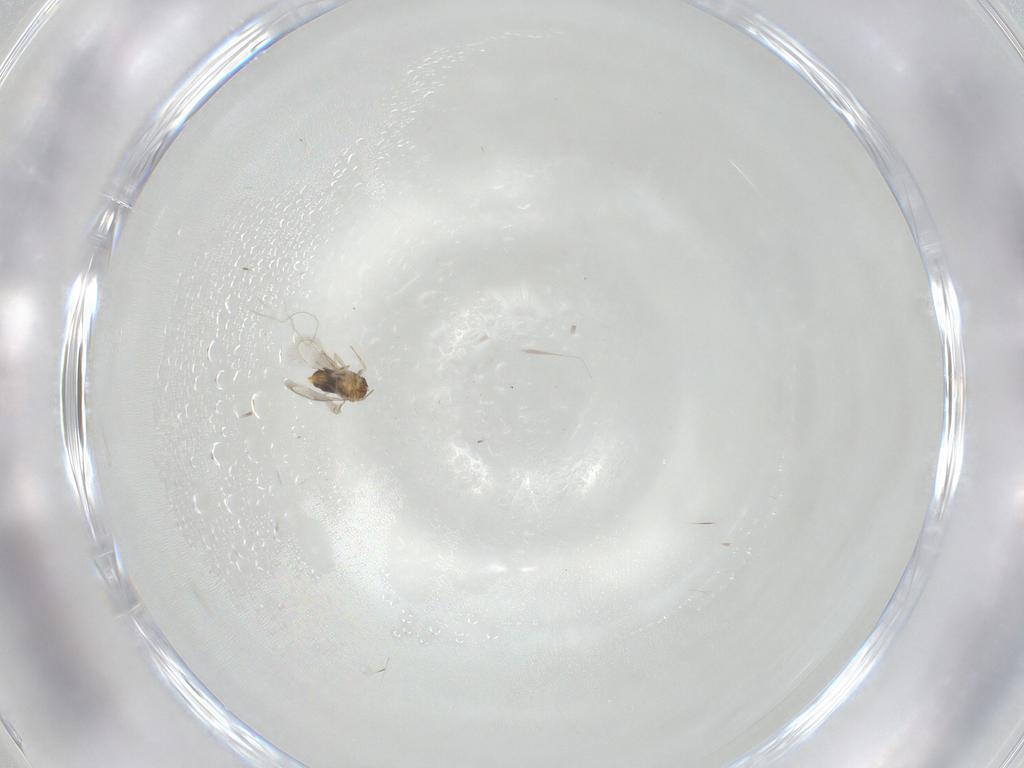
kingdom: Animalia
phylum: Arthropoda
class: Insecta
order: Hymenoptera
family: Aphelinidae
